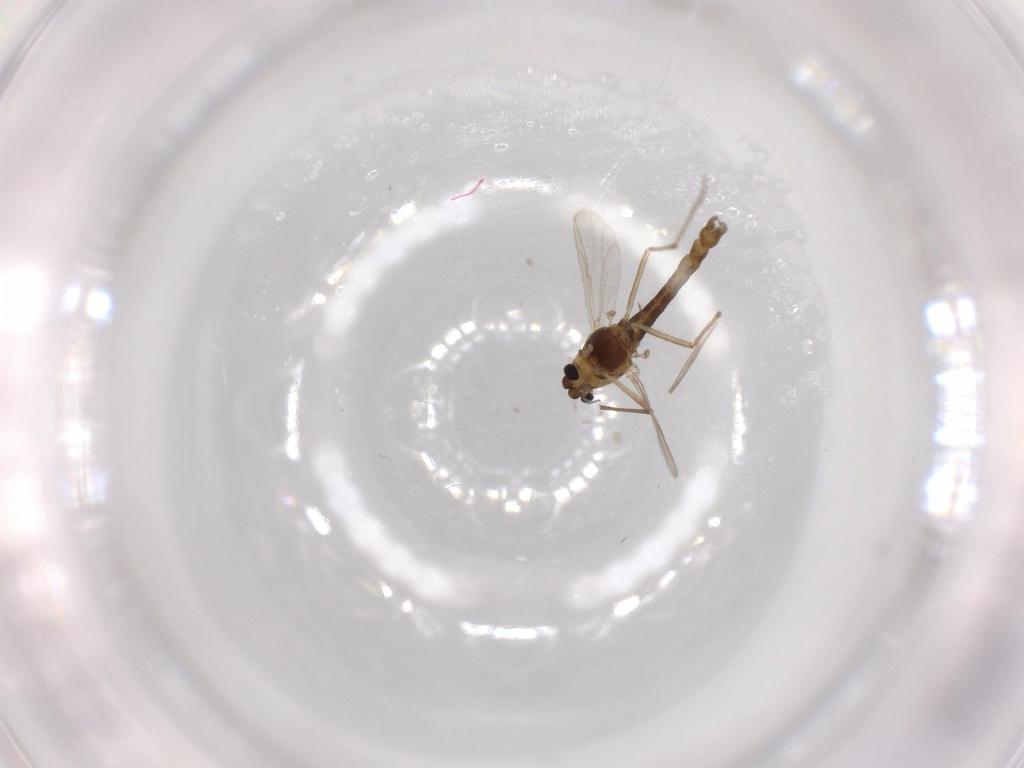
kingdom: Animalia
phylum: Arthropoda
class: Insecta
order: Diptera
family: Chironomidae
